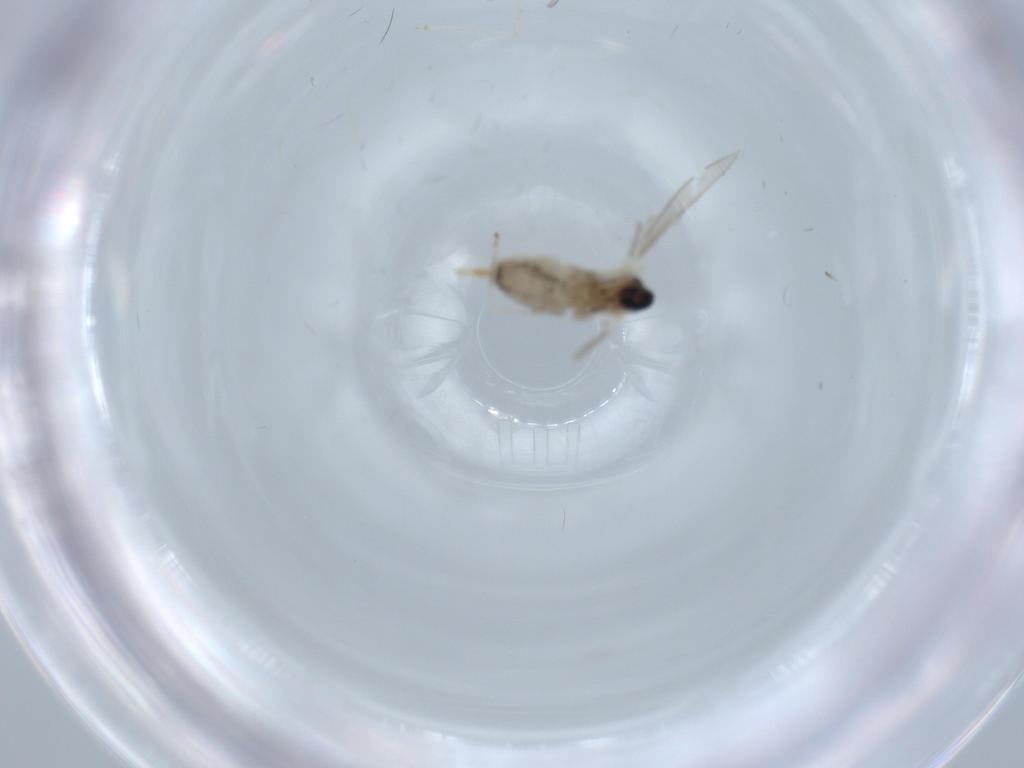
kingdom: Animalia
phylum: Arthropoda
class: Insecta
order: Diptera
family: Cecidomyiidae
